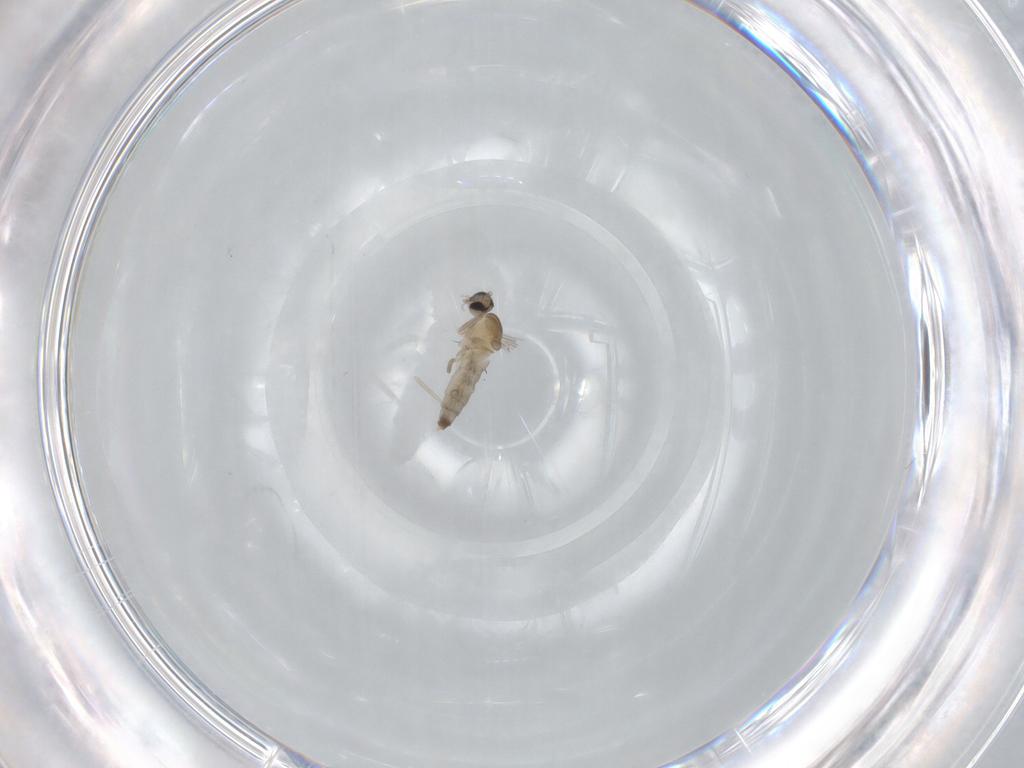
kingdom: Animalia
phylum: Arthropoda
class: Insecta
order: Diptera
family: Cecidomyiidae
